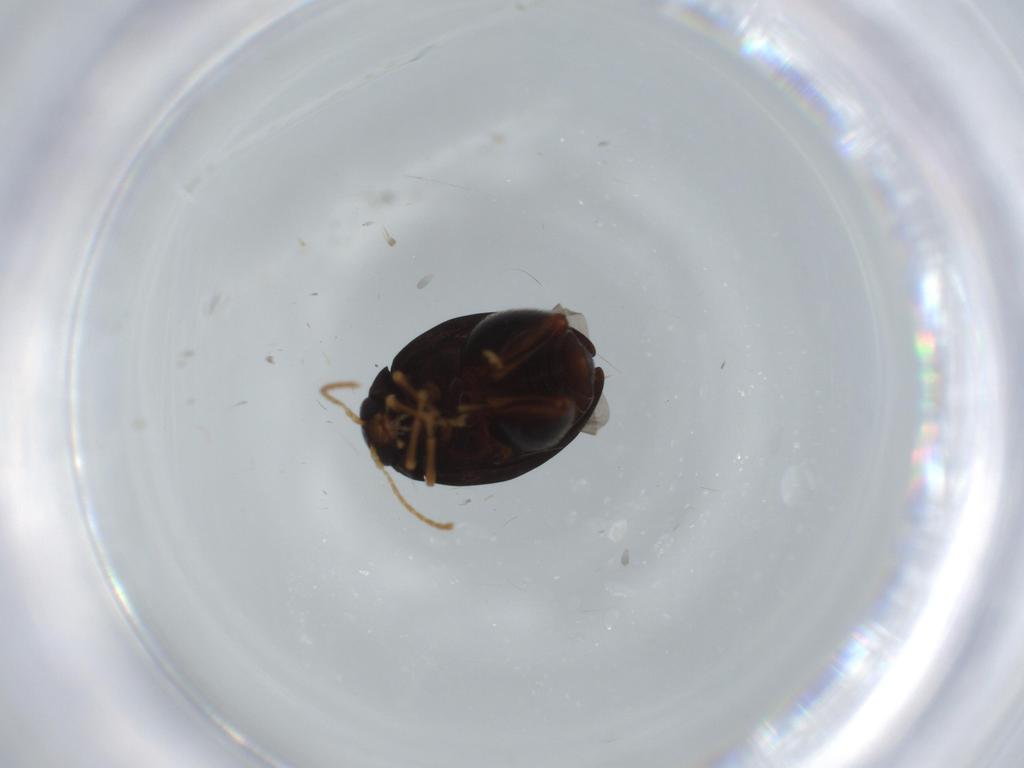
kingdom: Animalia
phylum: Arthropoda
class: Insecta
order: Coleoptera
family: Chrysomelidae
